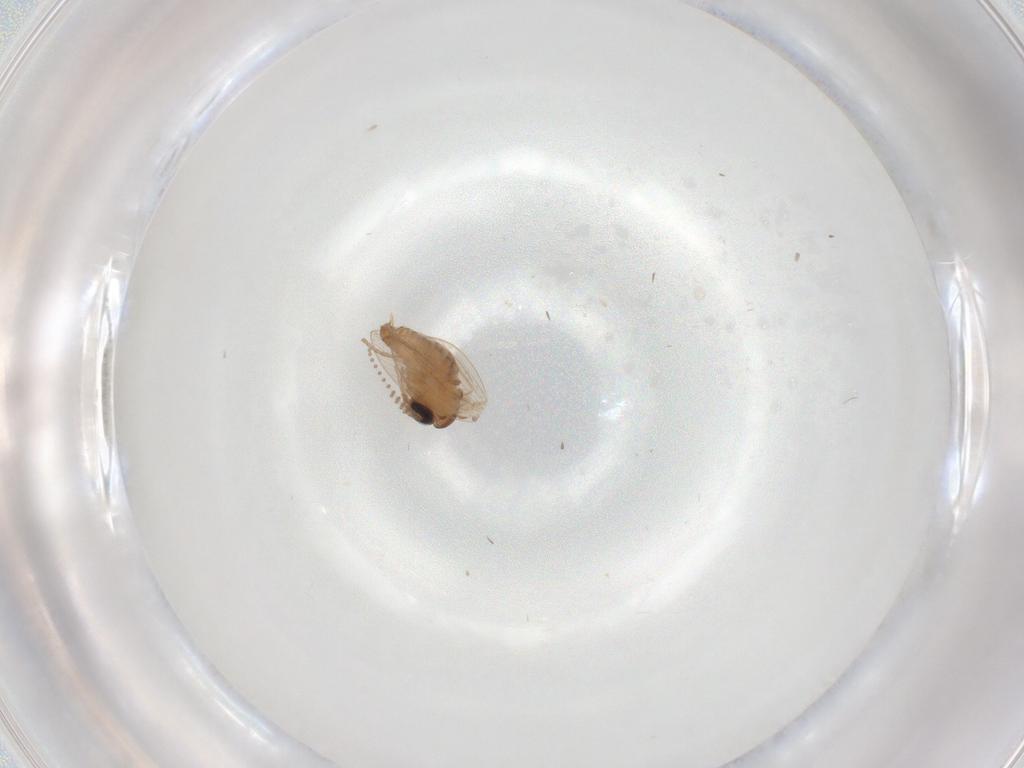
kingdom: Animalia
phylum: Arthropoda
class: Insecta
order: Diptera
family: Psychodidae
